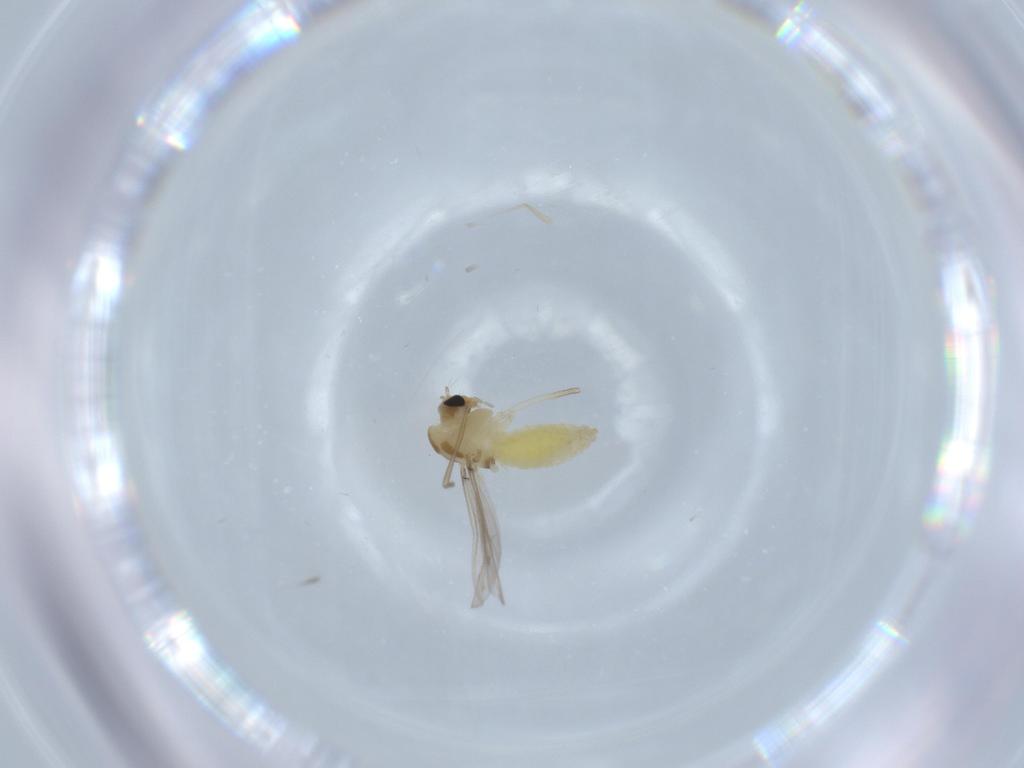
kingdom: Animalia
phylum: Arthropoda
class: Insecta
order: Diptera
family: Chironomidae
